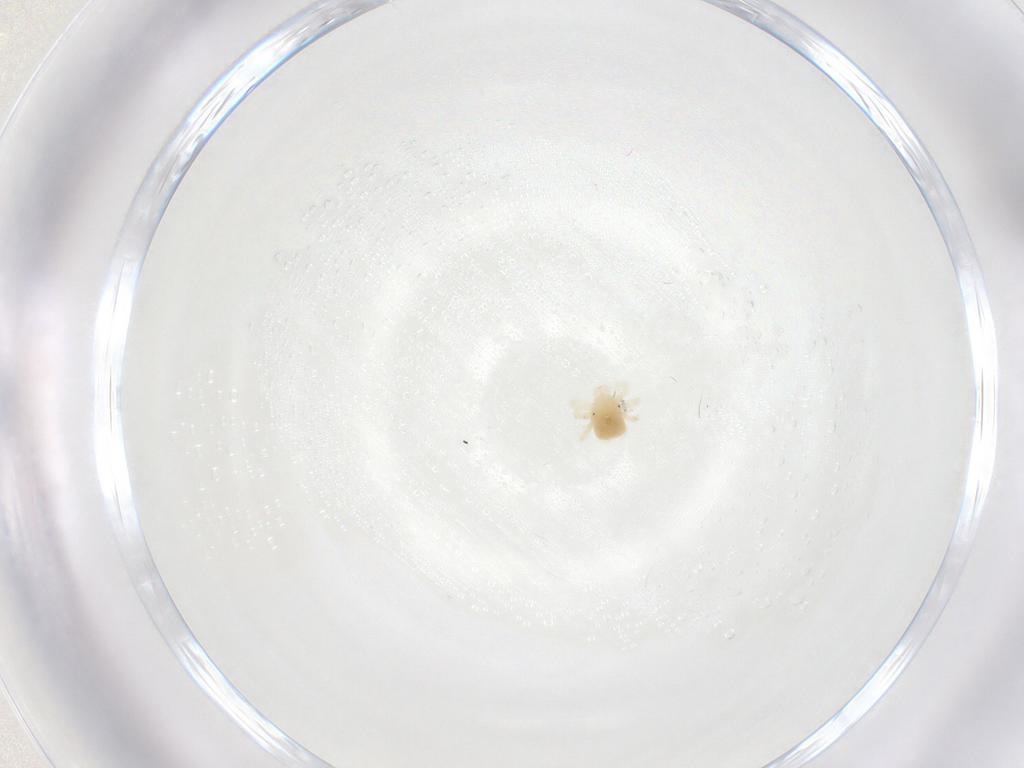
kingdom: Animalia
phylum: Arthropoda
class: Arachnida
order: Trombidiformes
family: Anystidae
